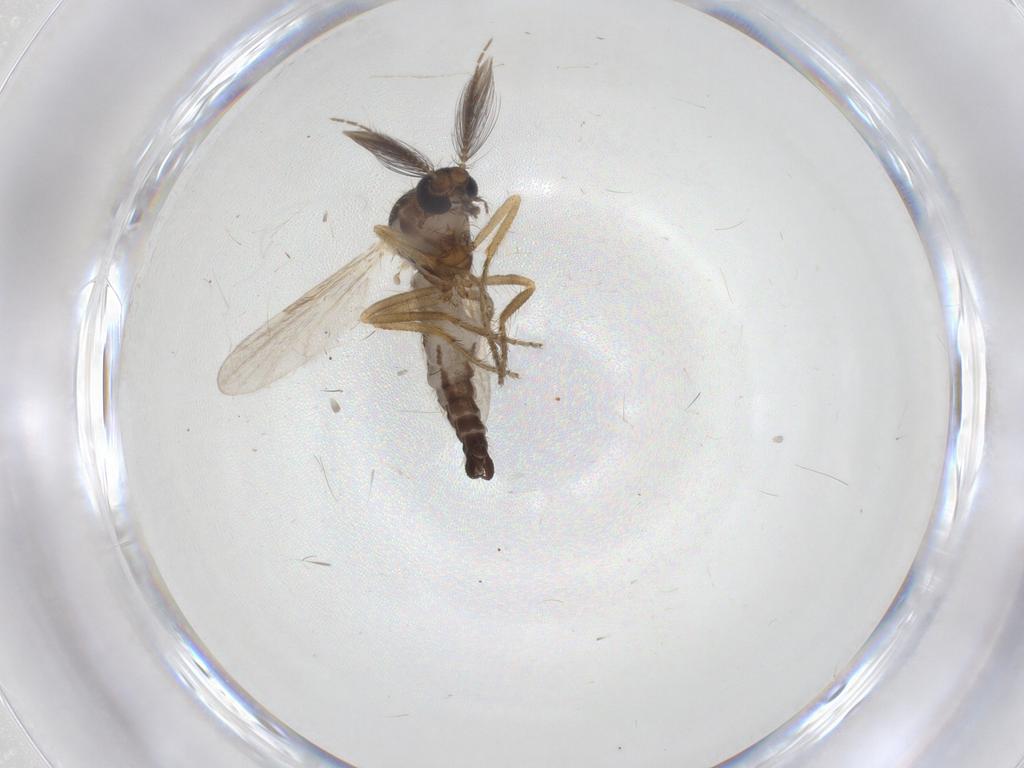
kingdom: Animalia
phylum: Arthropoda
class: Insecta
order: Diptera
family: Ceratopogonidae
